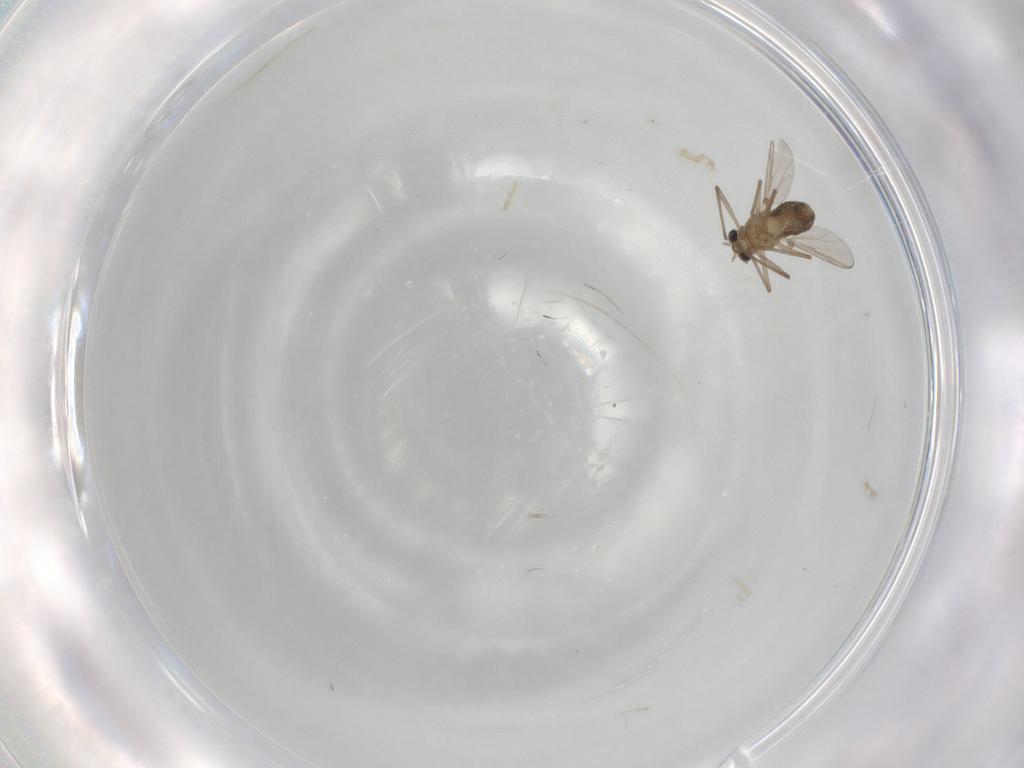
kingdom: Animalia
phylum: Arthropoda
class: Insecta
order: Diptera
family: Chironomidae
